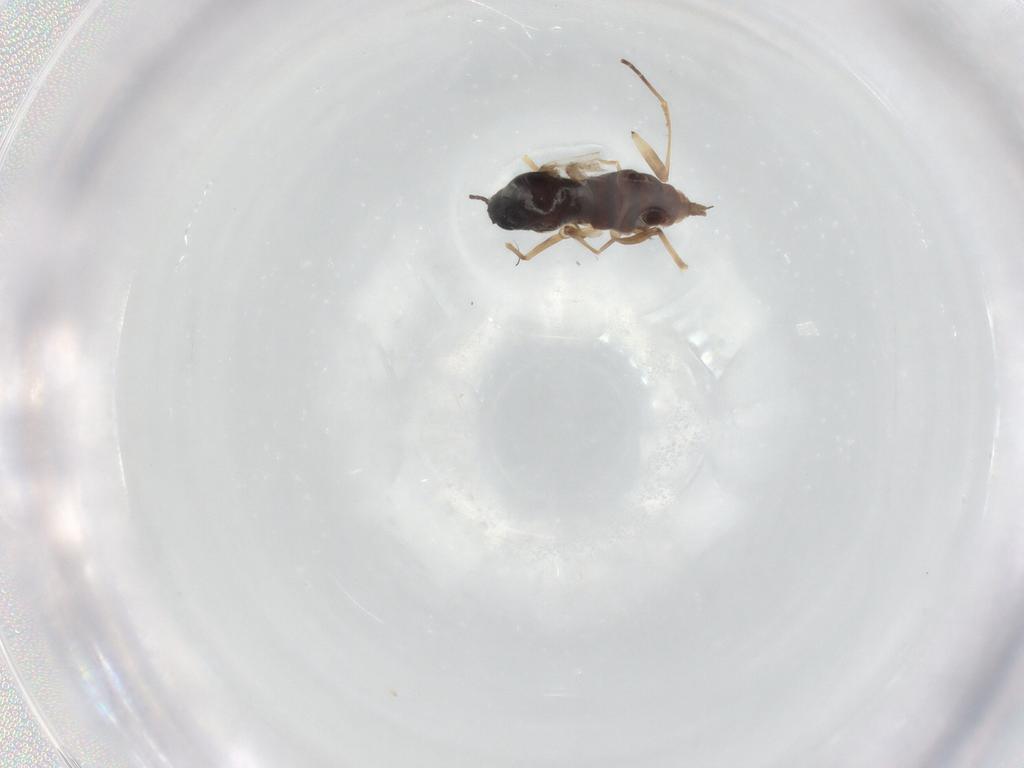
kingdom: Animalia
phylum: Arthropoda
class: Insecta
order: Diptera
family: Sciaridae
